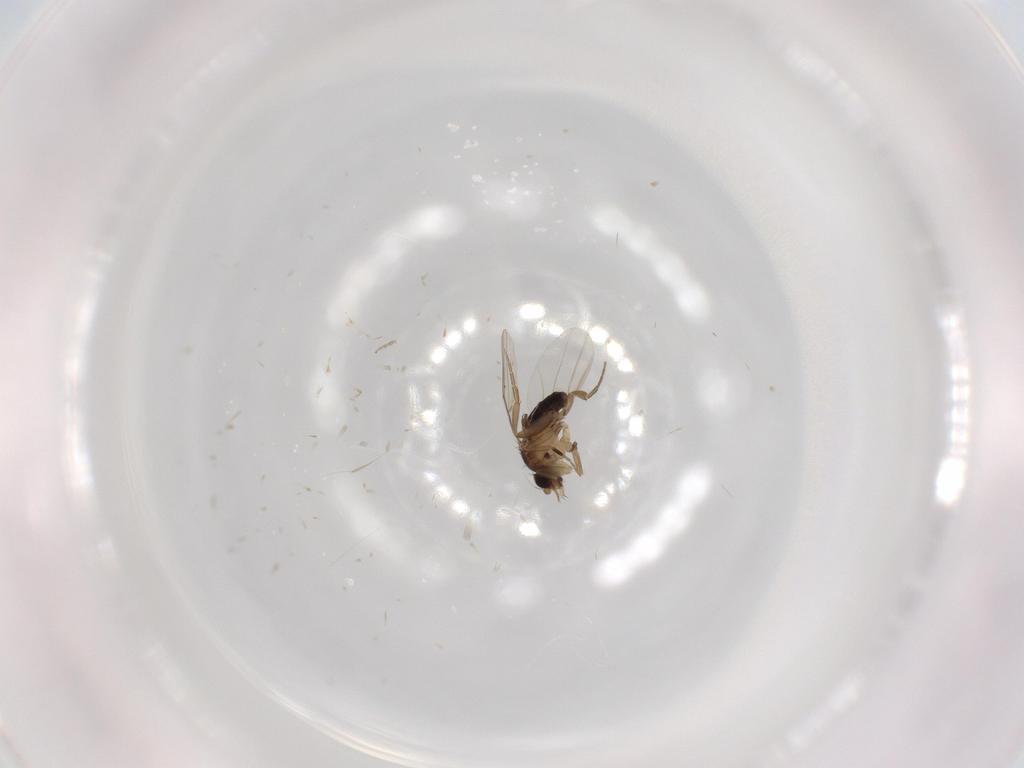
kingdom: Animalia
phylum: Arthropoda
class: Insecta
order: Diptera
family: Phoridae
